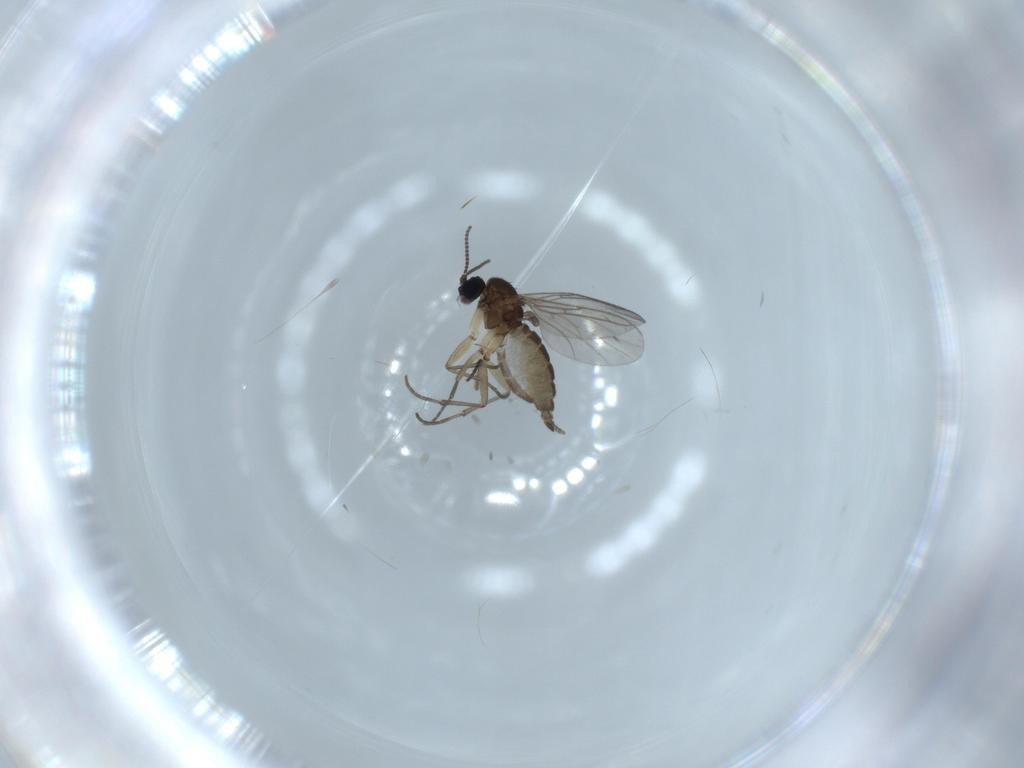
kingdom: Animalia
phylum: Arthropoda
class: Insecta
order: Diptera
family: Sciaridae
